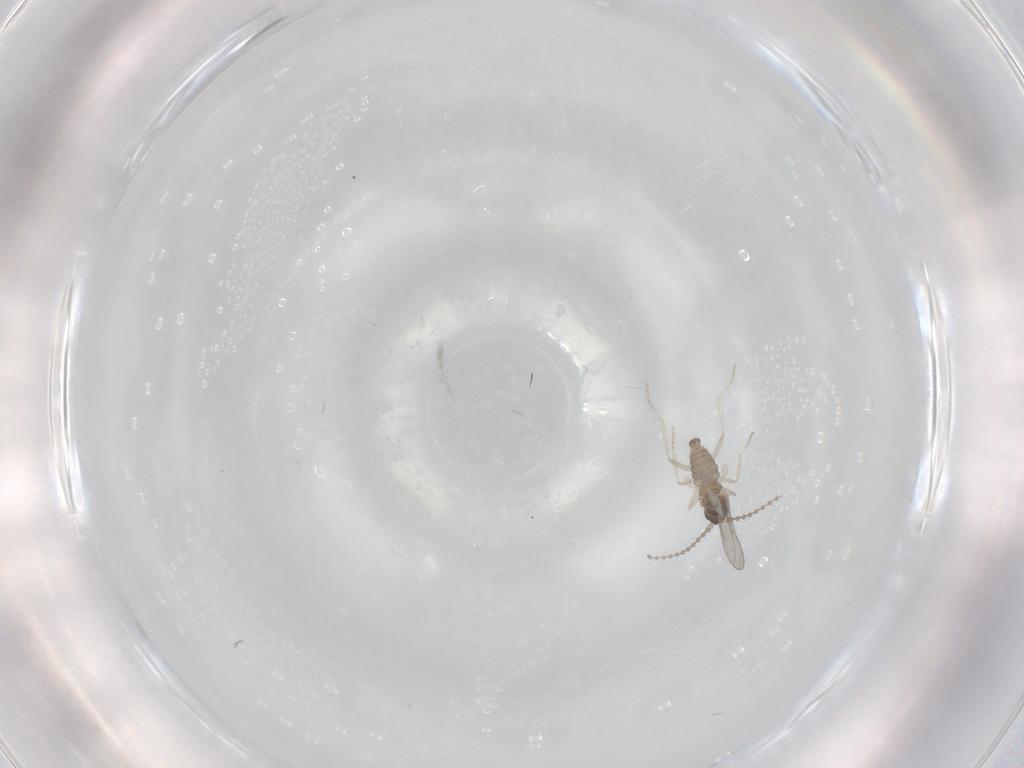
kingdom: Animalia
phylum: Arthropoda
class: Insecta
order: Diptera
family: Cecidomyiidae
